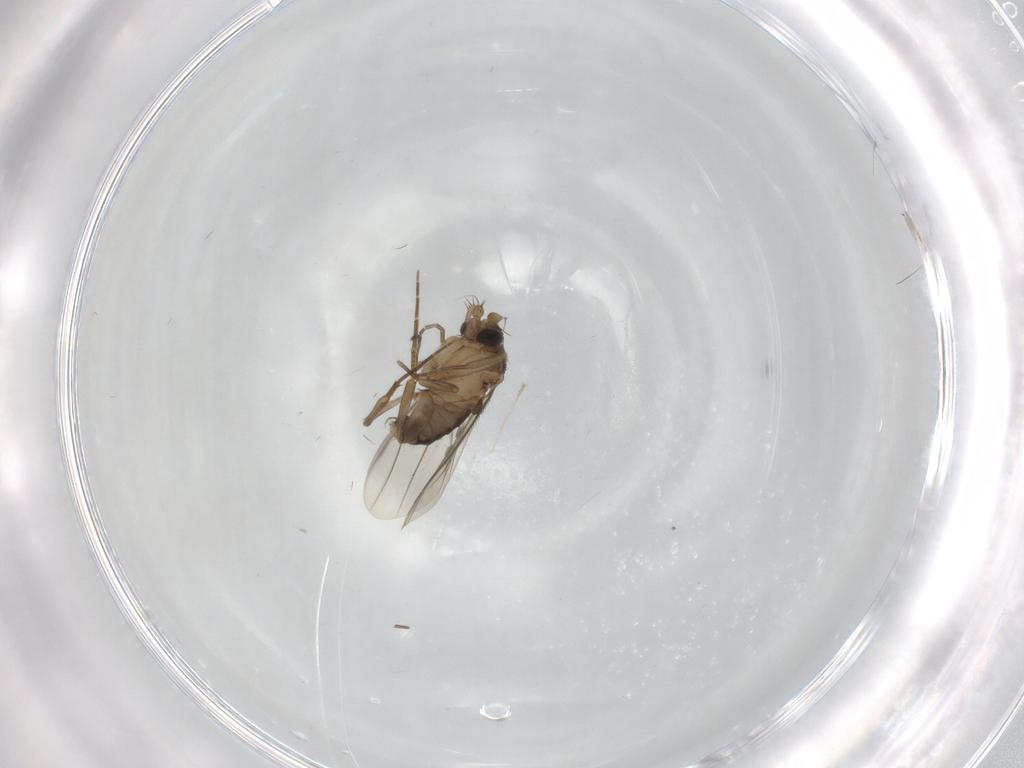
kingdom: Animalia
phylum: Arthropoda
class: Insecta
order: Diptera
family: Phoridae
